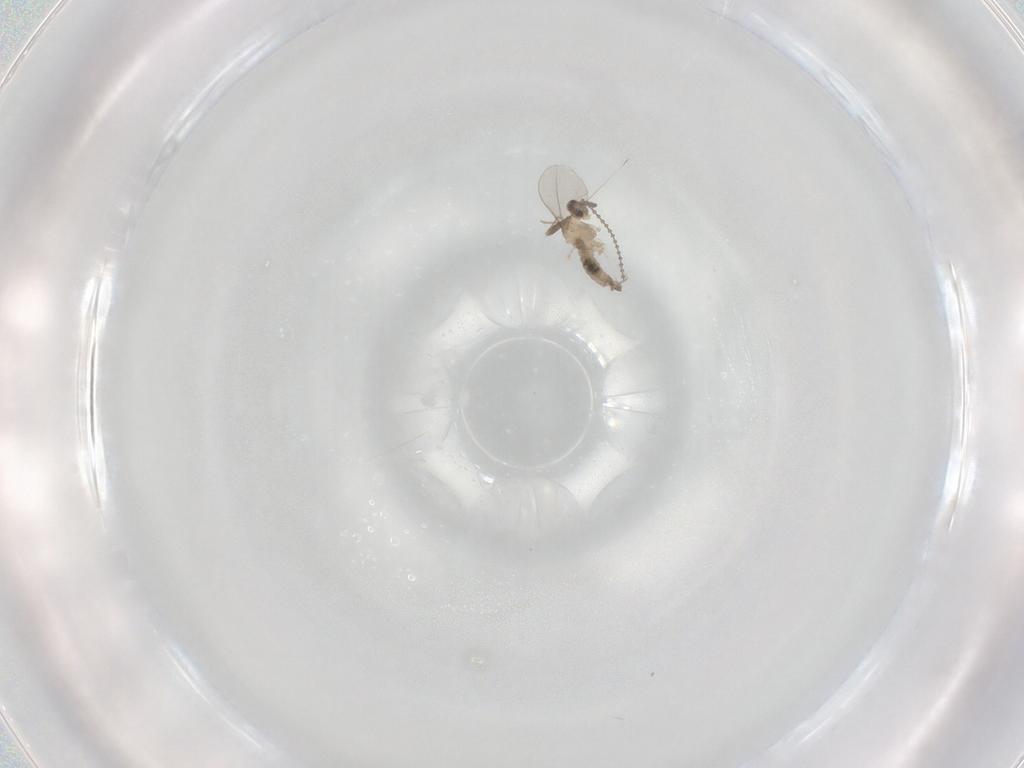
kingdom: Animalia
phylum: Arthropoda
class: Insecta
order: Diptera
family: Cecidomyiidae
